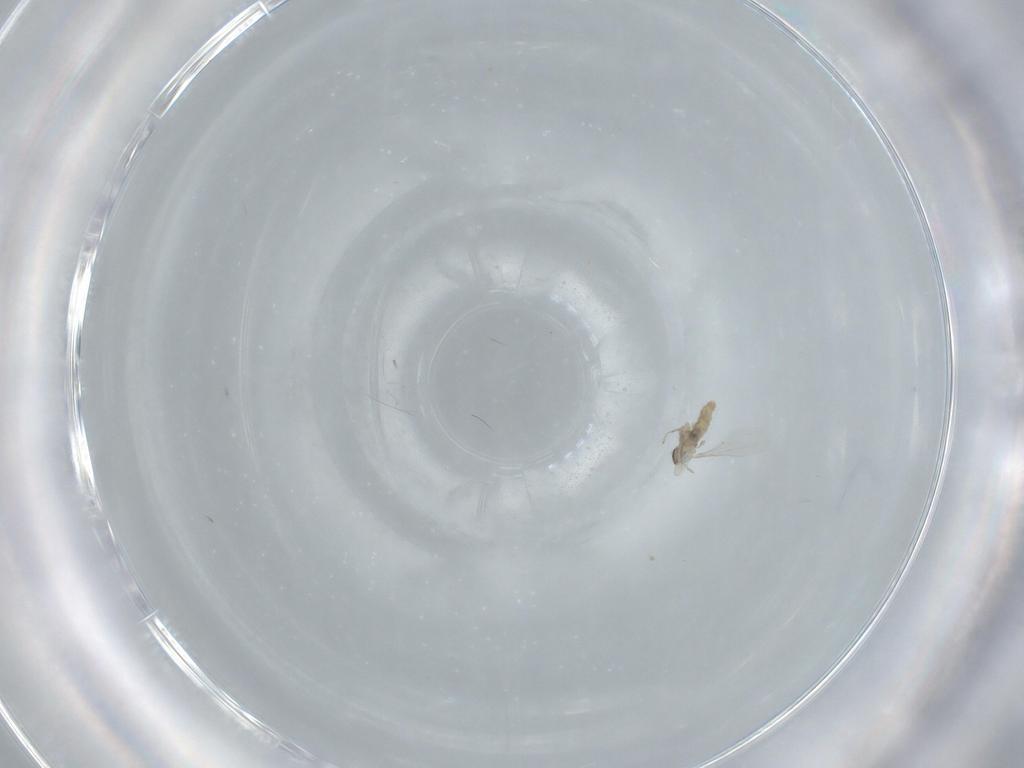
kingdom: Animalia
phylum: Arthropoda
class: Insecta
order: Diptera
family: Cecidomyiidae
